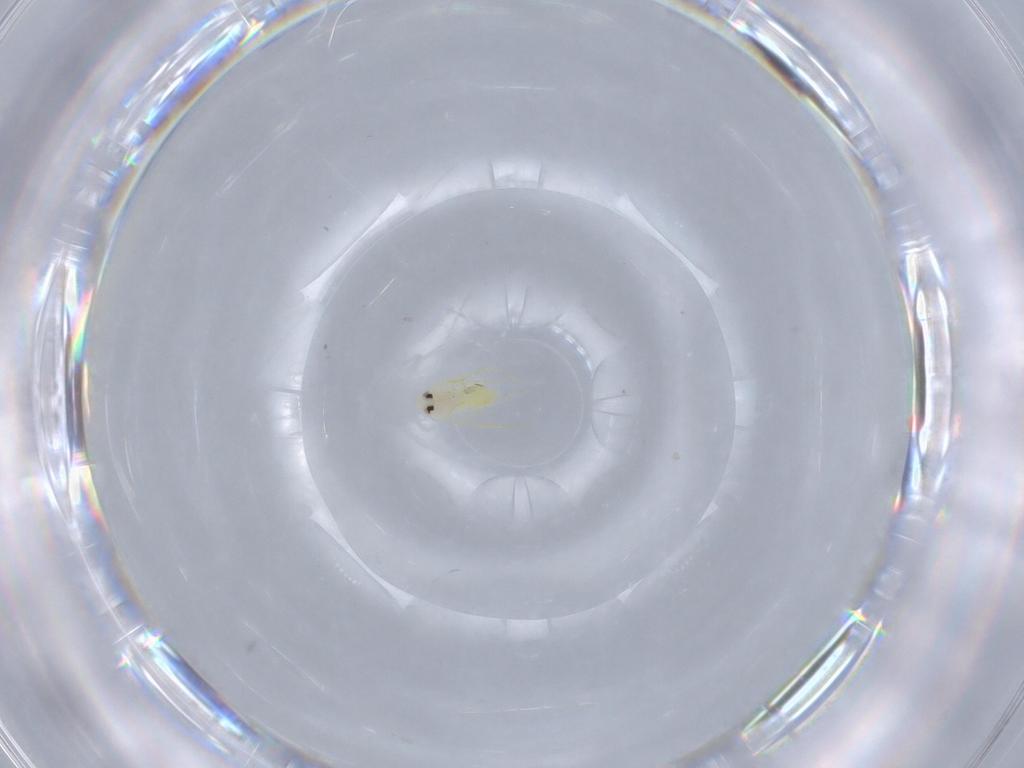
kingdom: Animalia
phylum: Arthropoda
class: Insecta
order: Hemiptera
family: Aleyrodidae
